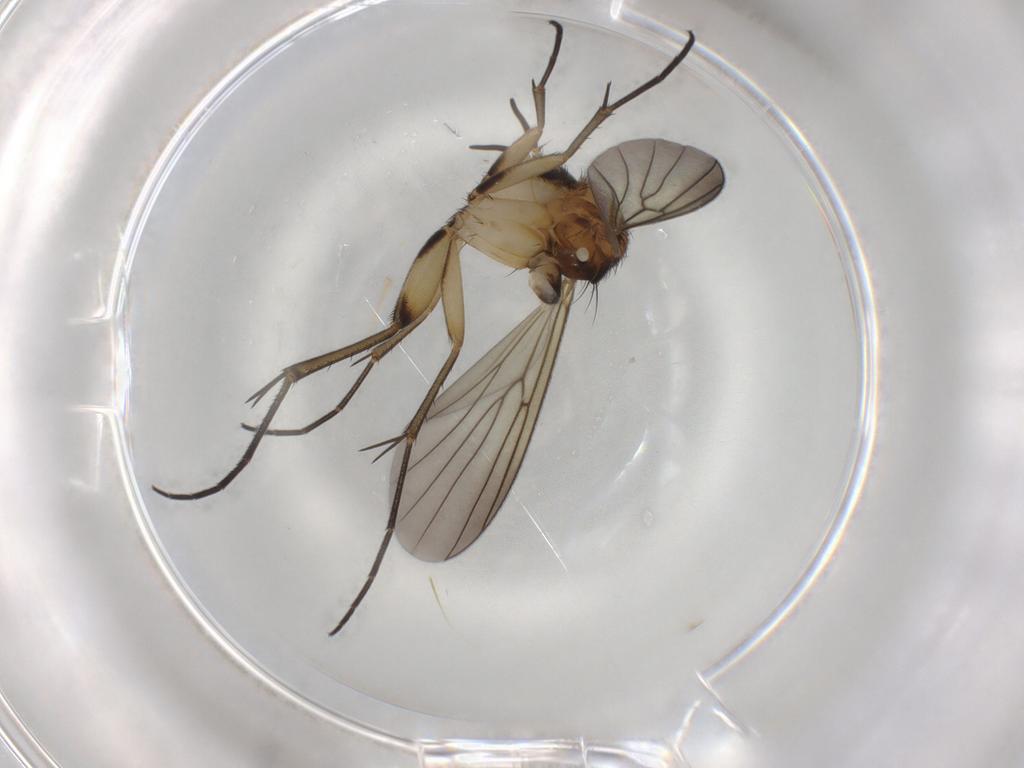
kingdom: Animalia
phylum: Arthropoda
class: Insecta
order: Diptera
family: Mycetophilidae
